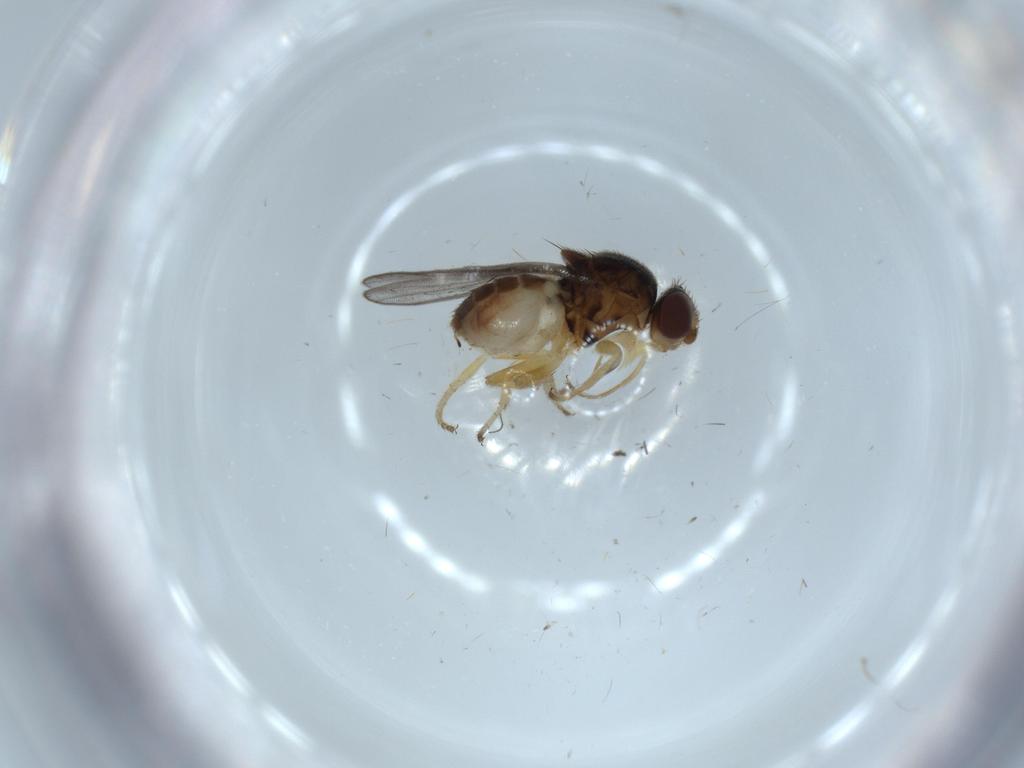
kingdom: Animalia
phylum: Arthropoda
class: Insecta
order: Diptera
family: Chloropidae
